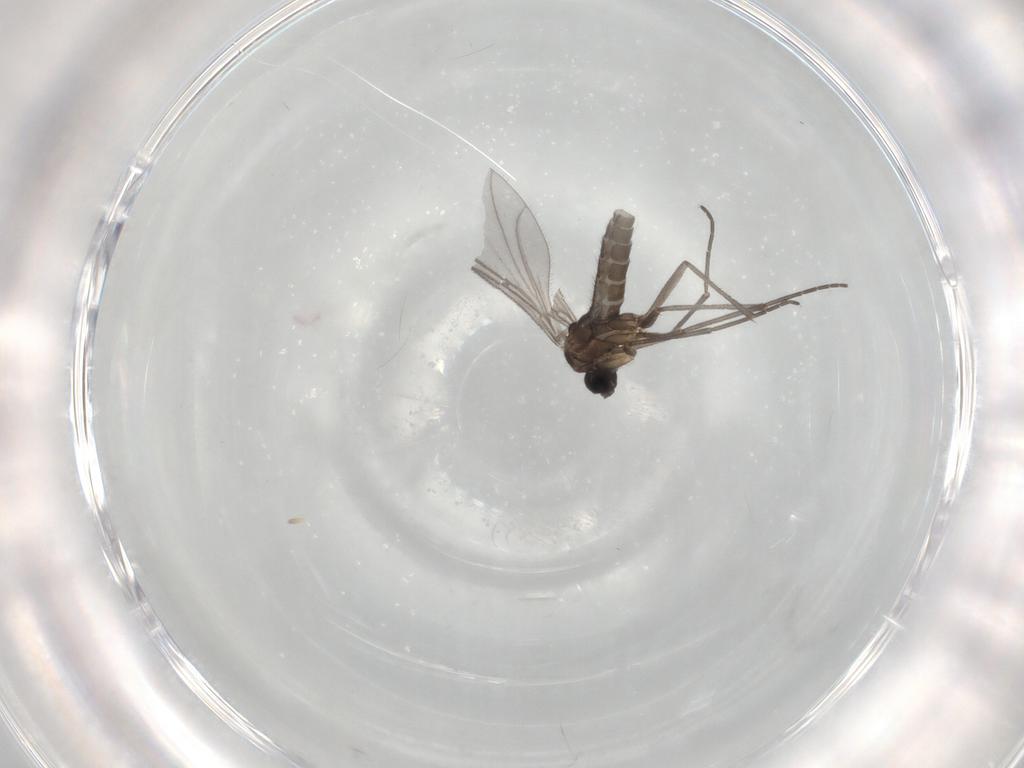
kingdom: Animalia
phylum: Arthropoda
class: Insecta
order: Diptera
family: Sciaridae
